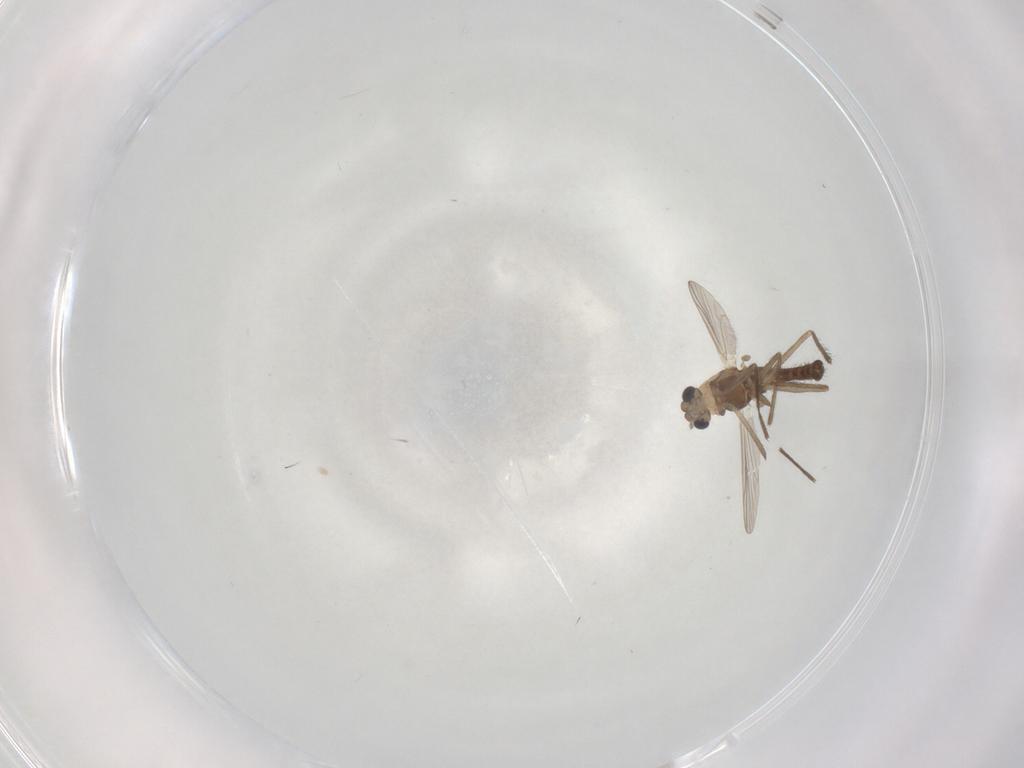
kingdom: Animalia
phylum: Arthropoda
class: Insecta
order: Diptera
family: Chironomidae
